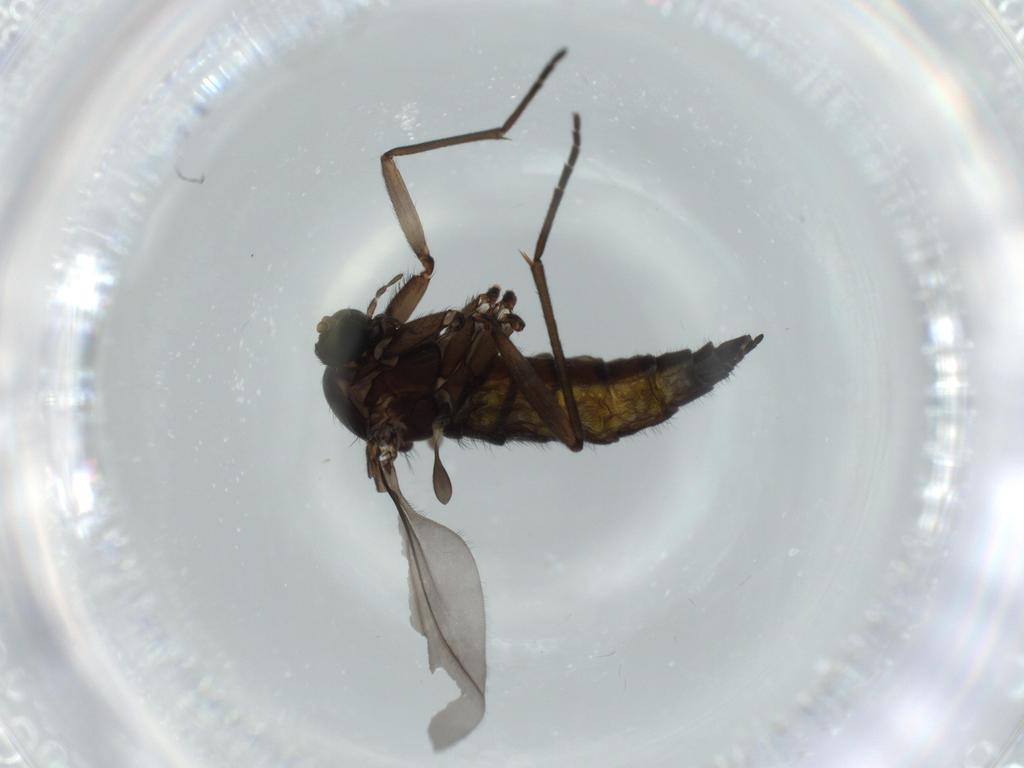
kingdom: Animalia
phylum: Arthropoda
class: Insecta
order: Diptera
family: Sciaridae
